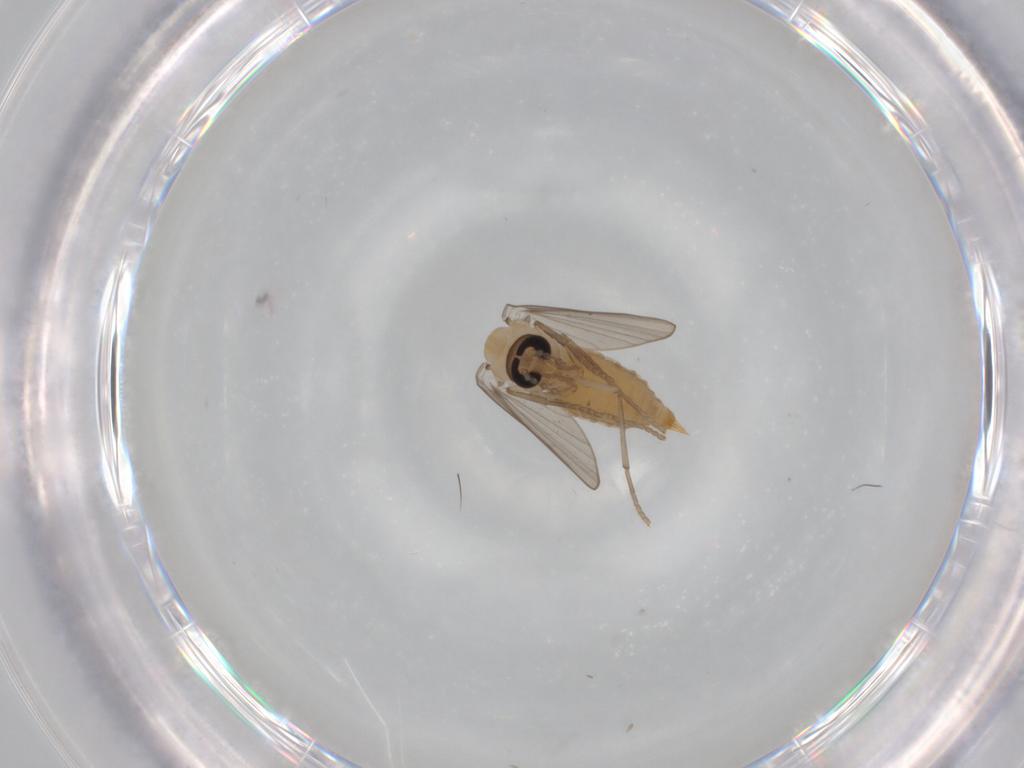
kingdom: Animalia
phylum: Arthropoda
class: Insecta
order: Diptera
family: Psychodidae
